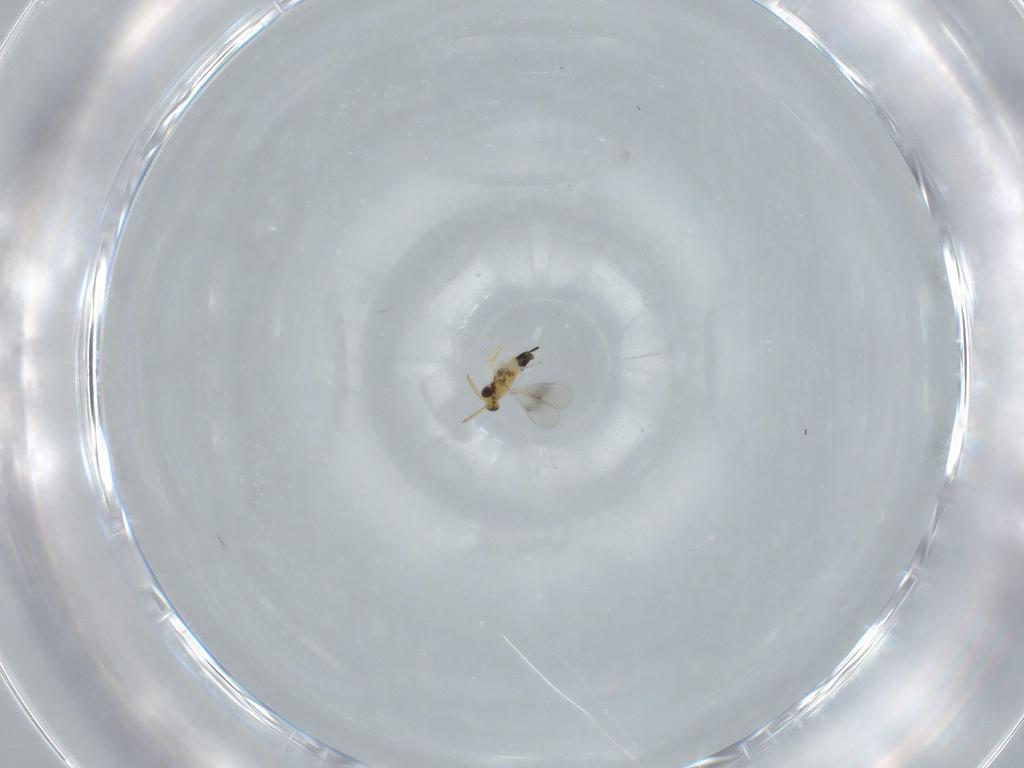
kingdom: Animalia
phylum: Arthropoda
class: Insecta
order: Hymenoptera
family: Aphelinidae
